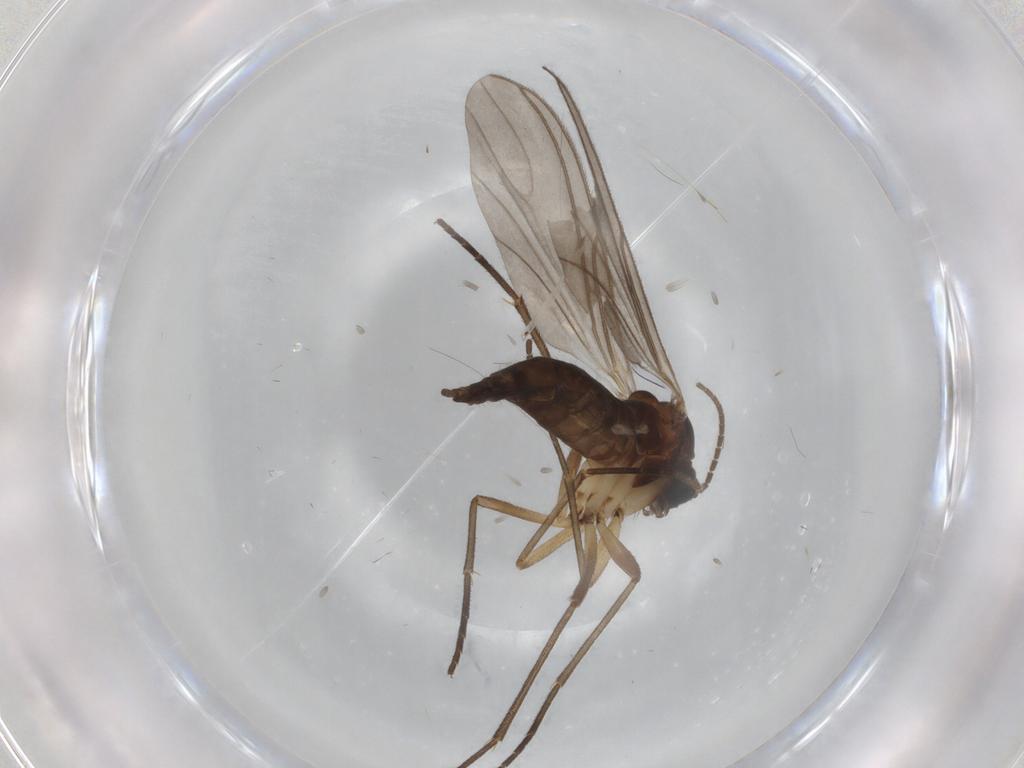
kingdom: Animalia
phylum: Arthropoda
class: Insecta
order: Diptera
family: Sciaridae
